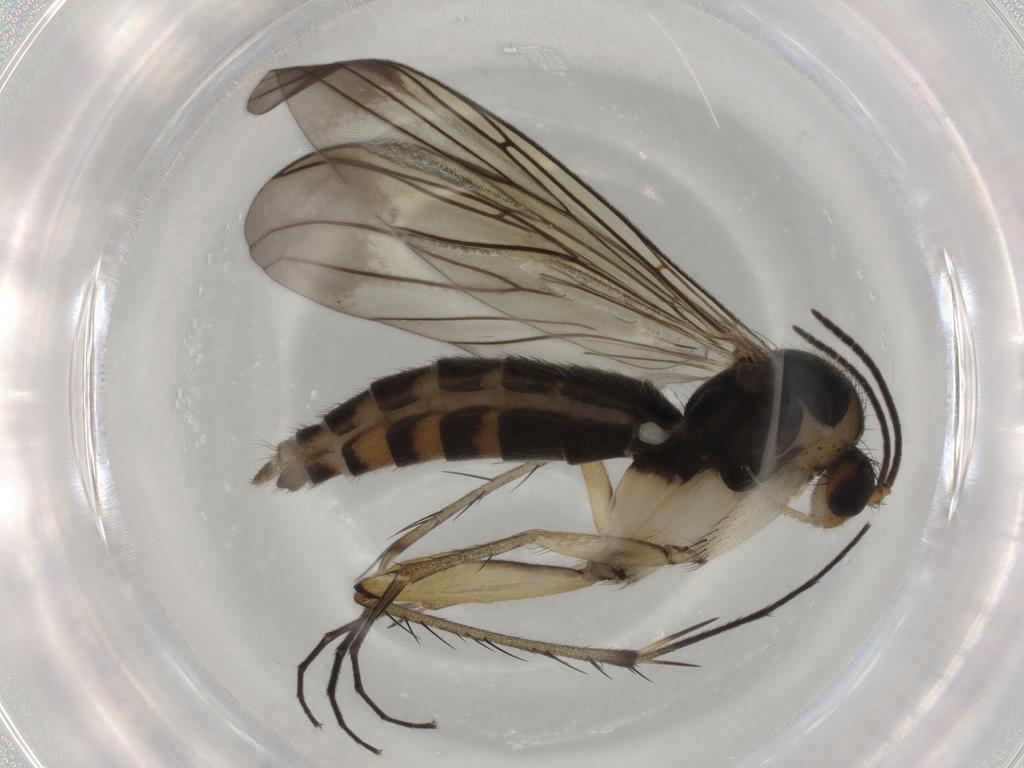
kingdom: Animalia
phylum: Arthropoda
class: Insecta
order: Diptera
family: Mycetophilidae
